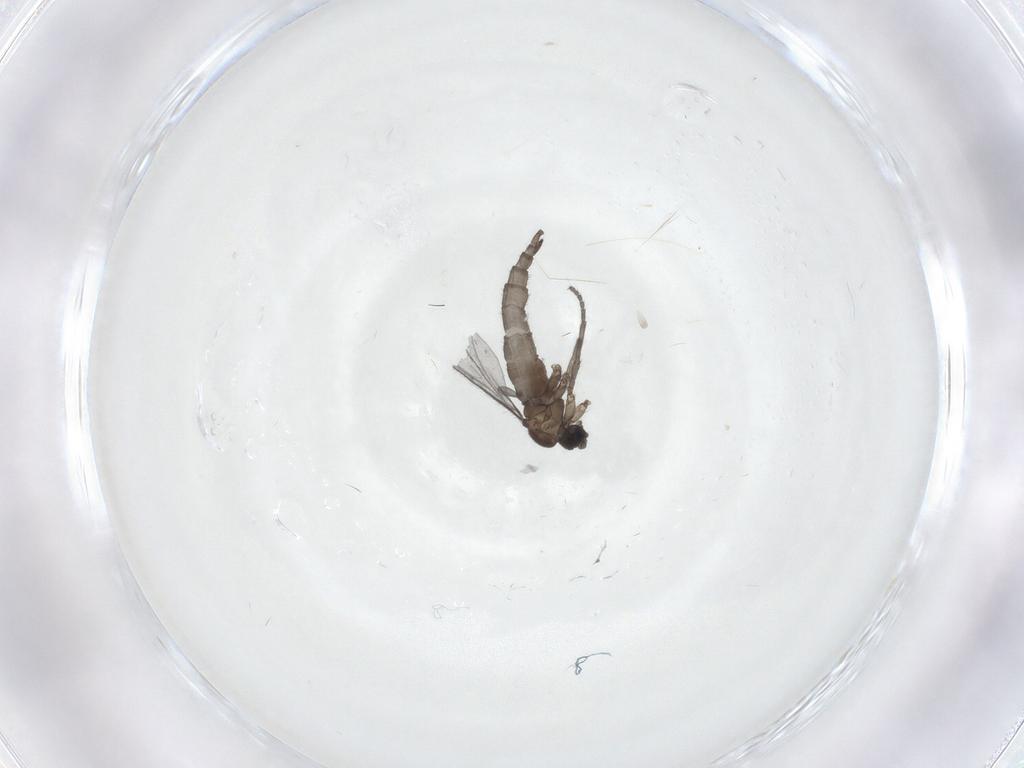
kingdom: Animalia
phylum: Arthropoda
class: Insecta
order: Diptera
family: Sciaridae
